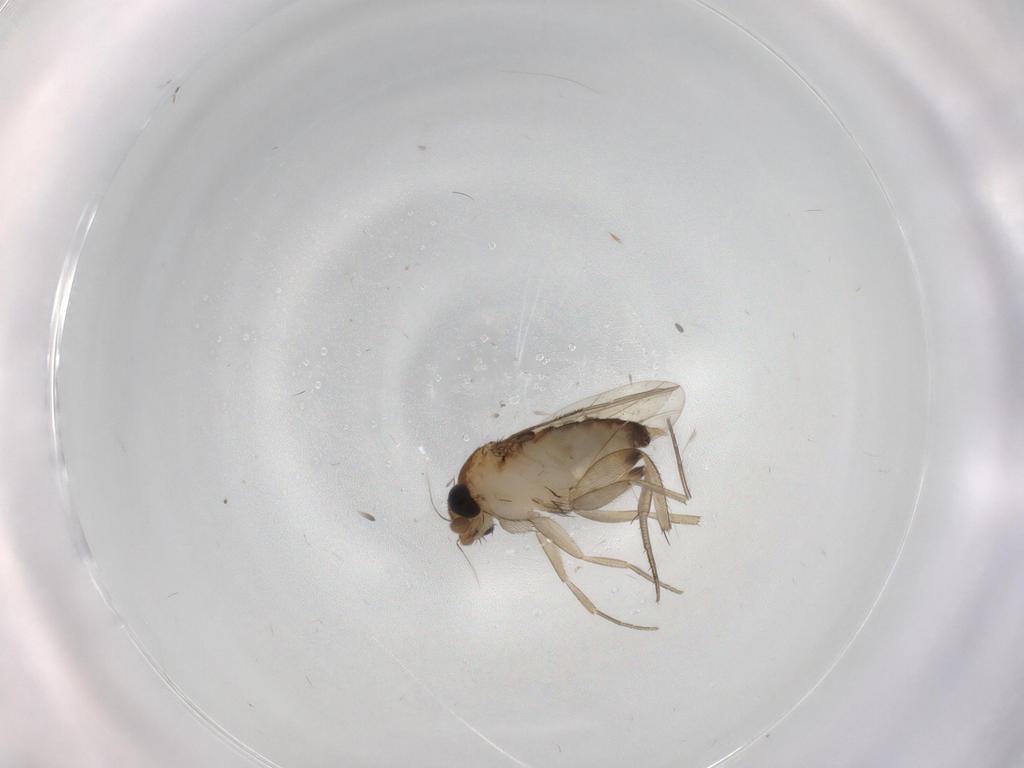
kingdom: Animalia
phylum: Arthropoda
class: Insecta
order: Diptera
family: Phoridae
